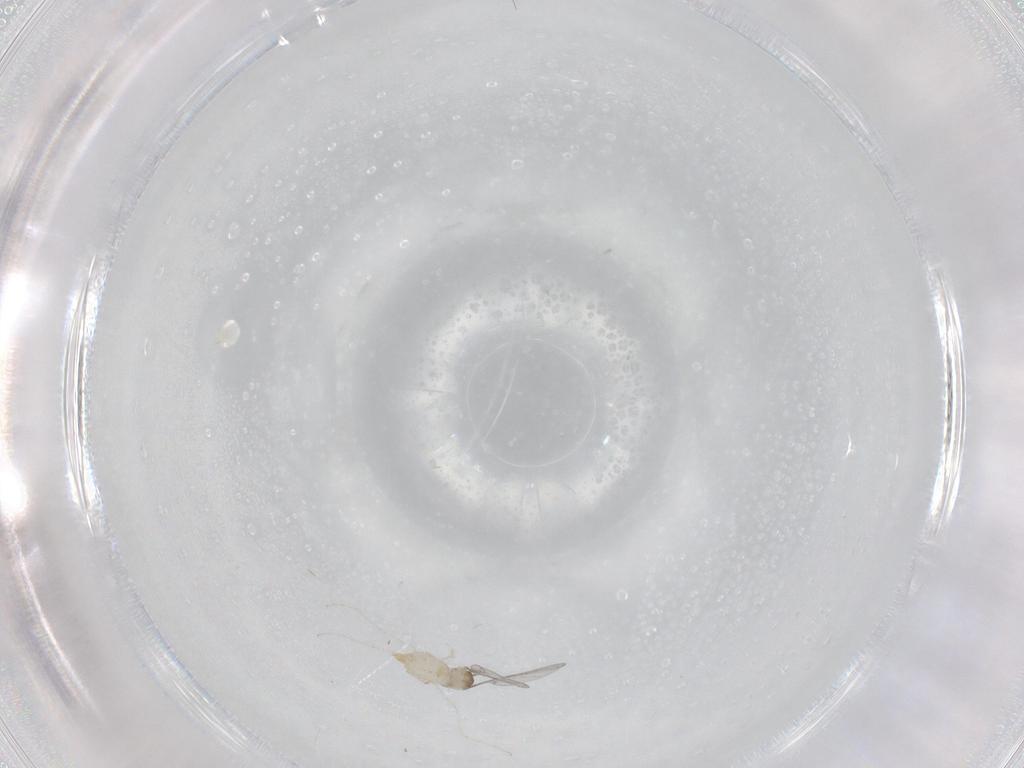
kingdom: Animalia
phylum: Arthropoda
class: Insecta
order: Diptera
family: Cecidomyiidae
